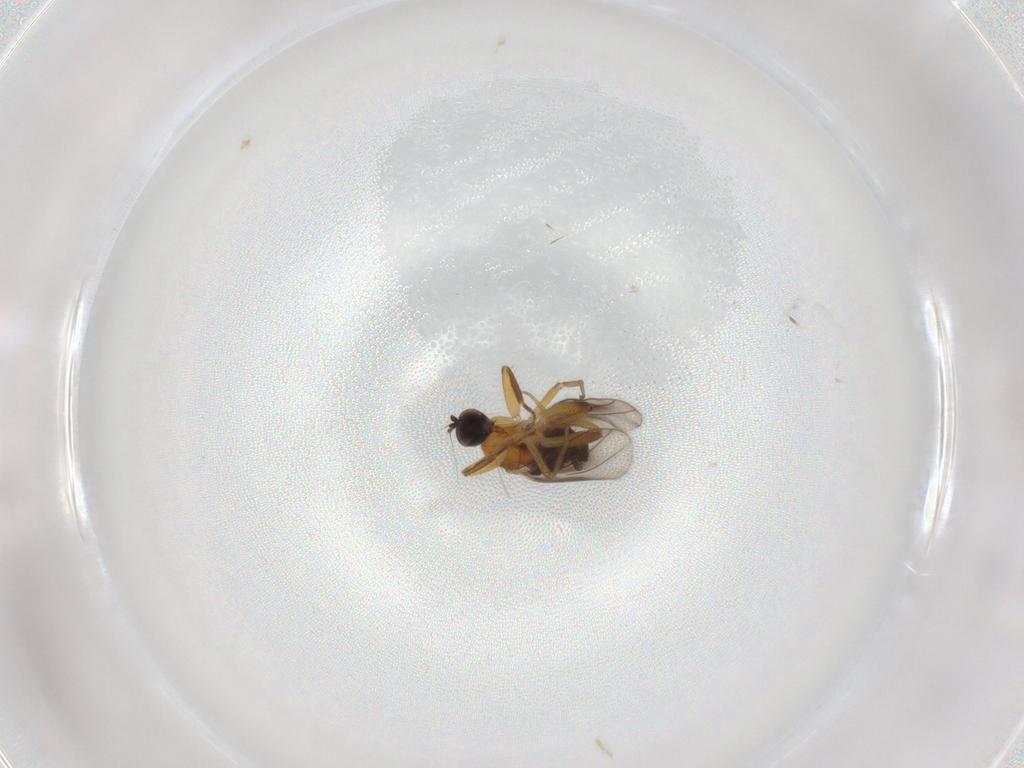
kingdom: Animalia
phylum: Arthropoda
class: Insecta
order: Diptera
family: Hybotidae
